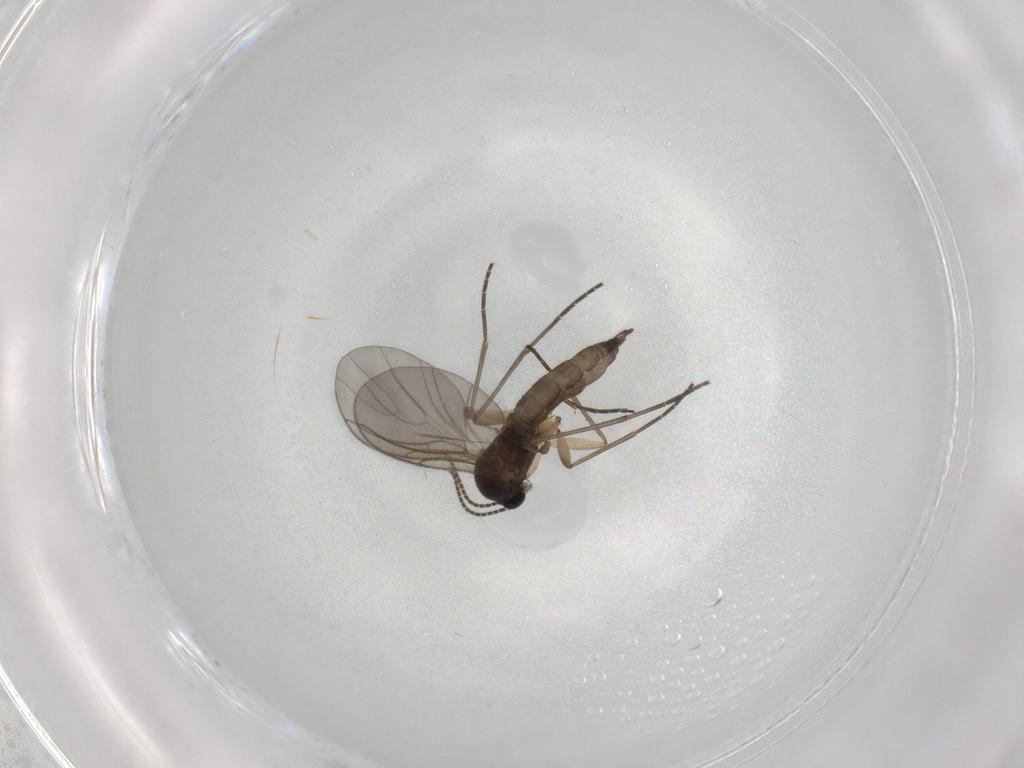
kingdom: Animalia
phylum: Arthropoda
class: Insecta
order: Diptera
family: Sciaridae
